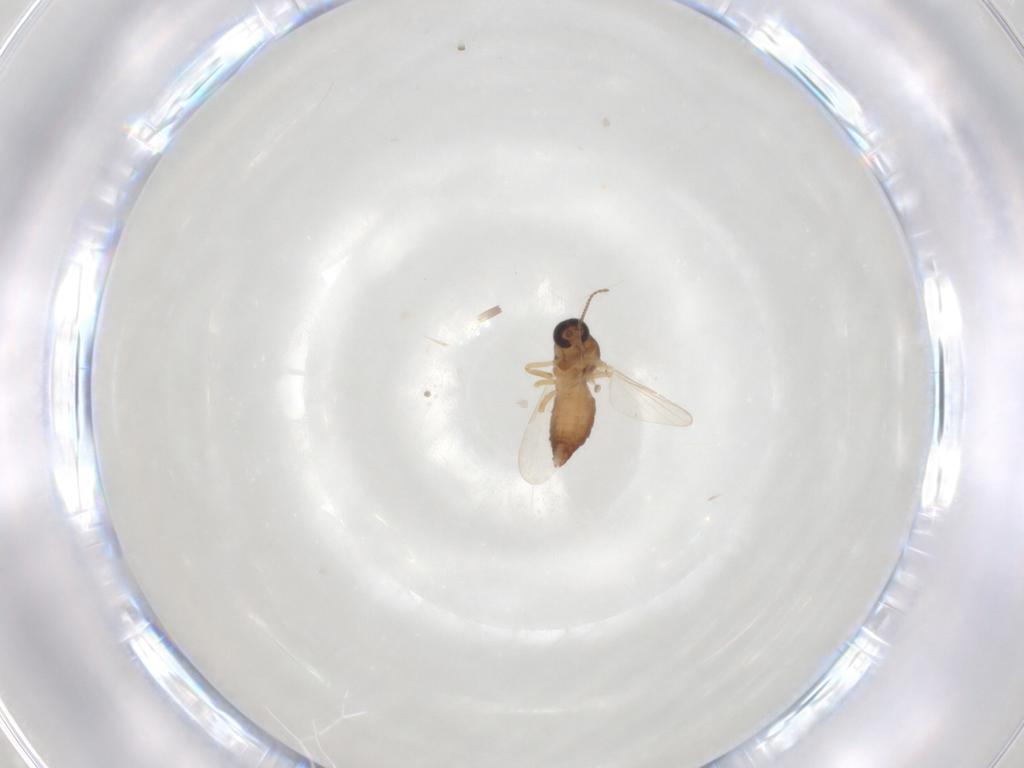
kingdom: Animalia
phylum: Arthropoda
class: Insecta
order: Diptera
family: Ceratopogonidae
